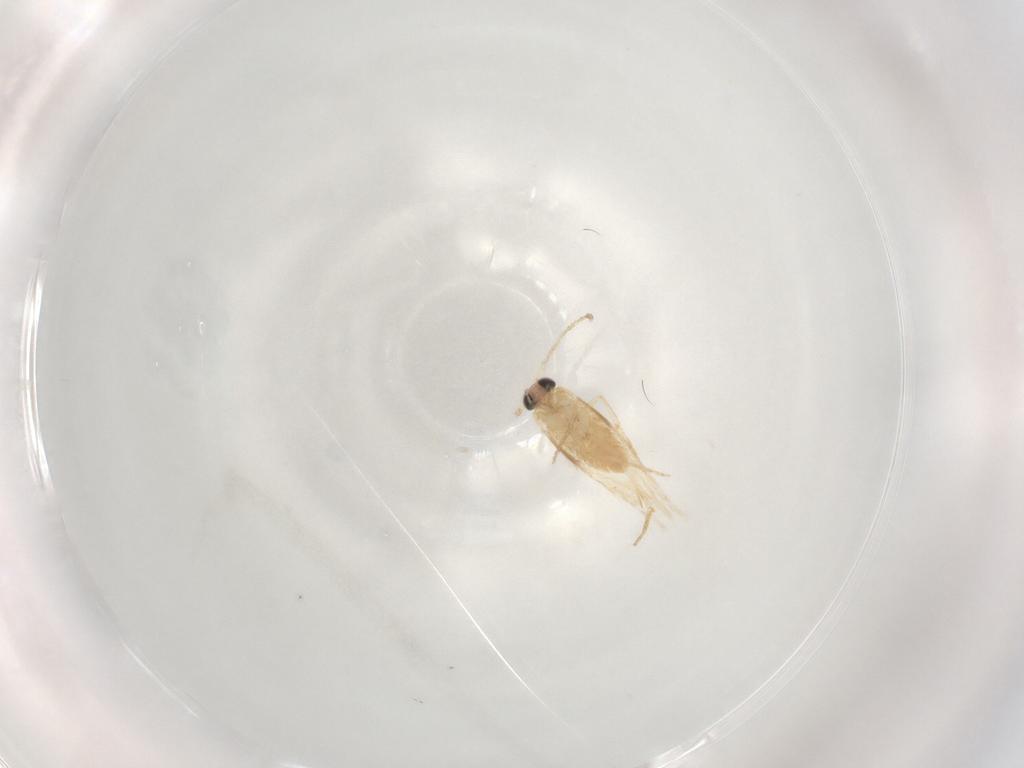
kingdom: Animalia
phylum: Arthropoda
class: Insecta
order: Lepidoptera
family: Nepticulidae
